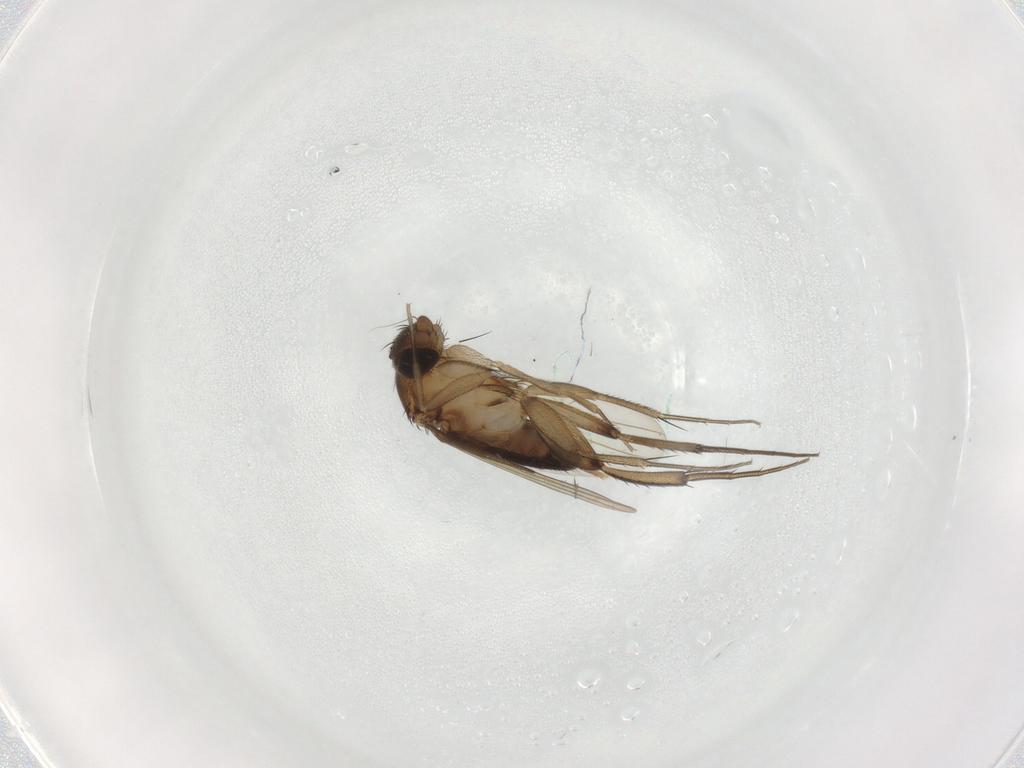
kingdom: Animalia
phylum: Arthropoda
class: Insecta
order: Diptera
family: Phoridae
